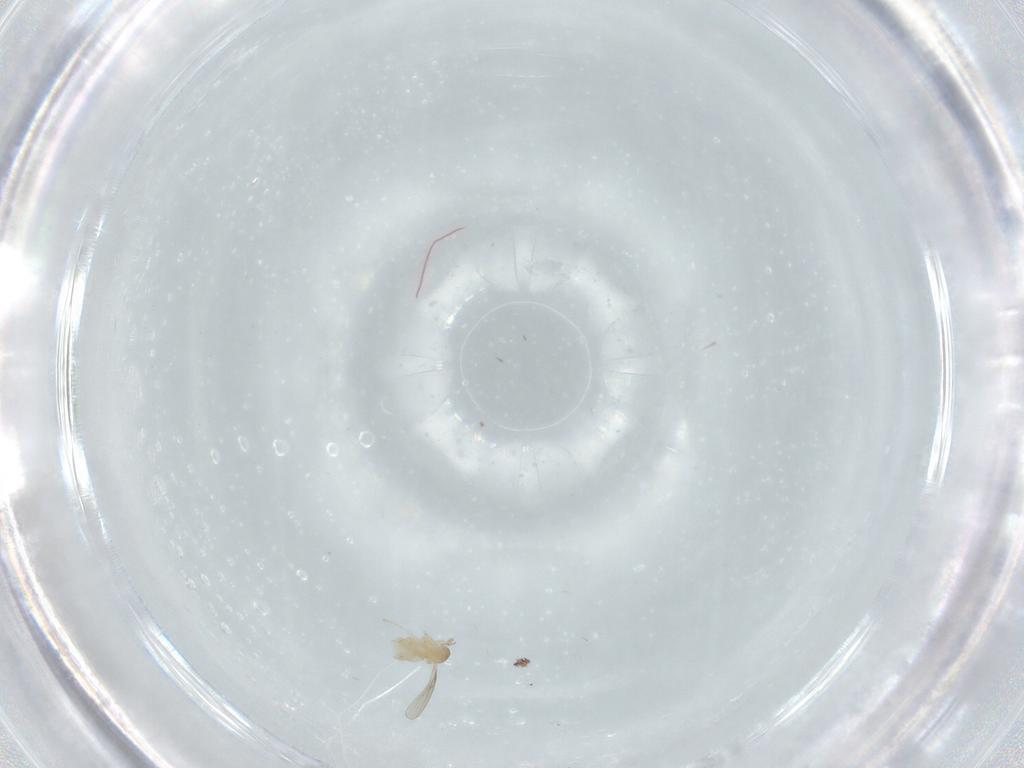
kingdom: Animalia
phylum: Arthropoda
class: Insecta
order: Diptera
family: Cecidomyiidae
